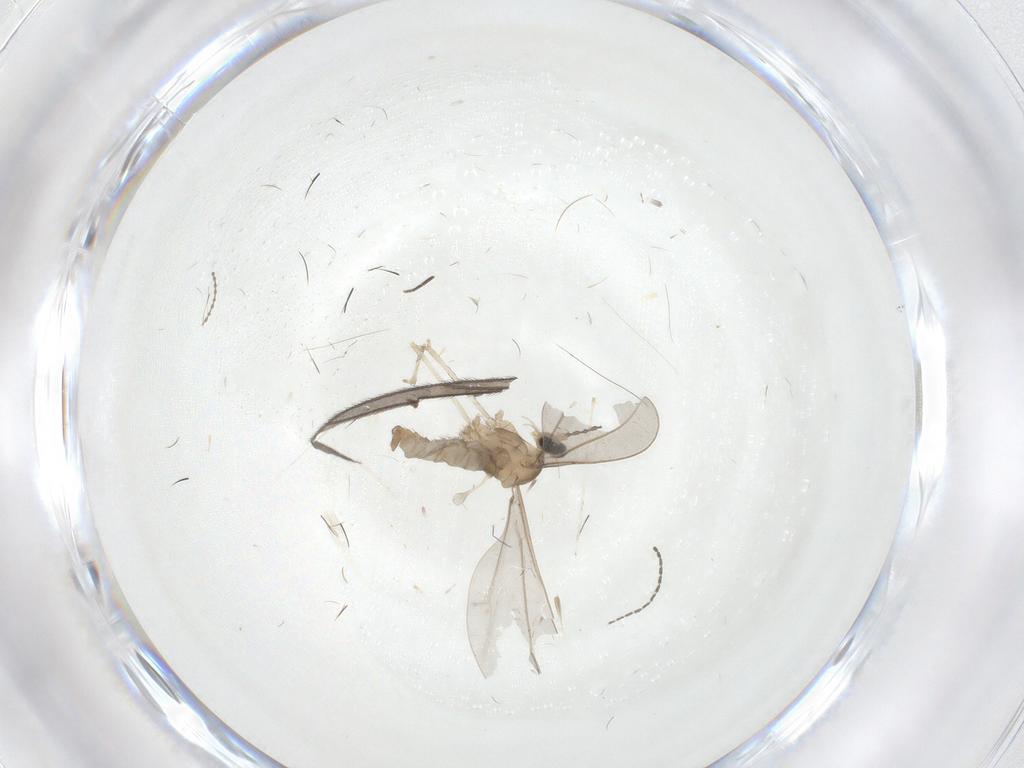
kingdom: Animalia
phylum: Arthropoda
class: Insecta
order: Diptera
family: Cecidomyiidae
